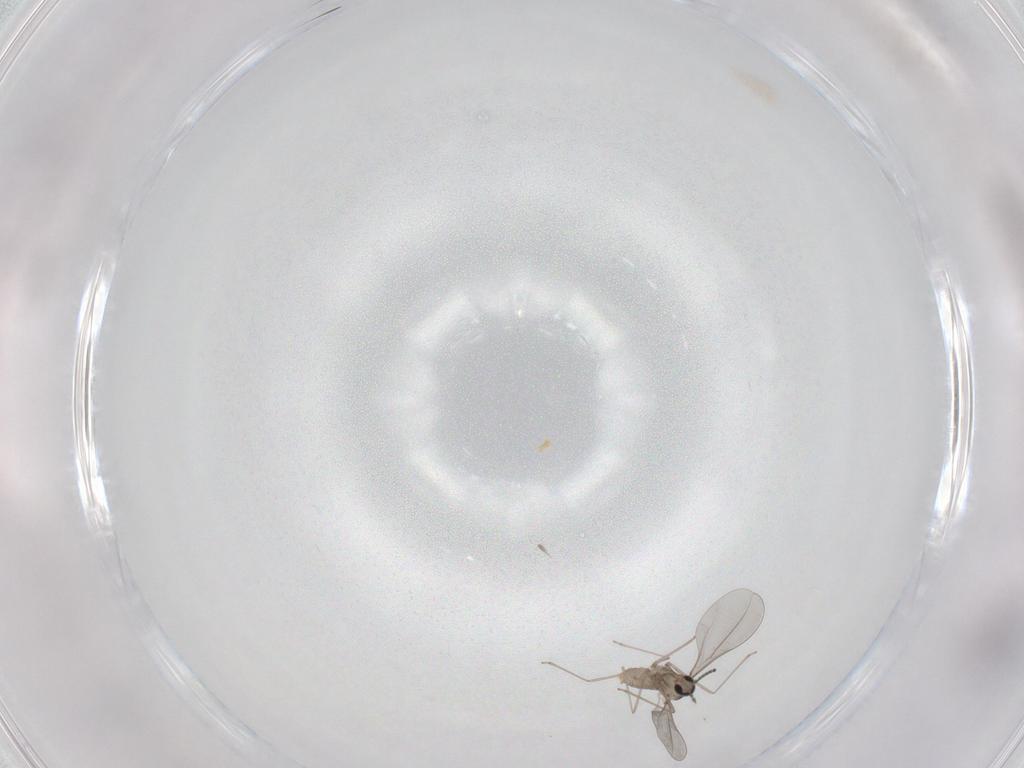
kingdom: Animalia
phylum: Arthropoda
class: Insecta
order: Diptera
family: Cecidomyiidae
